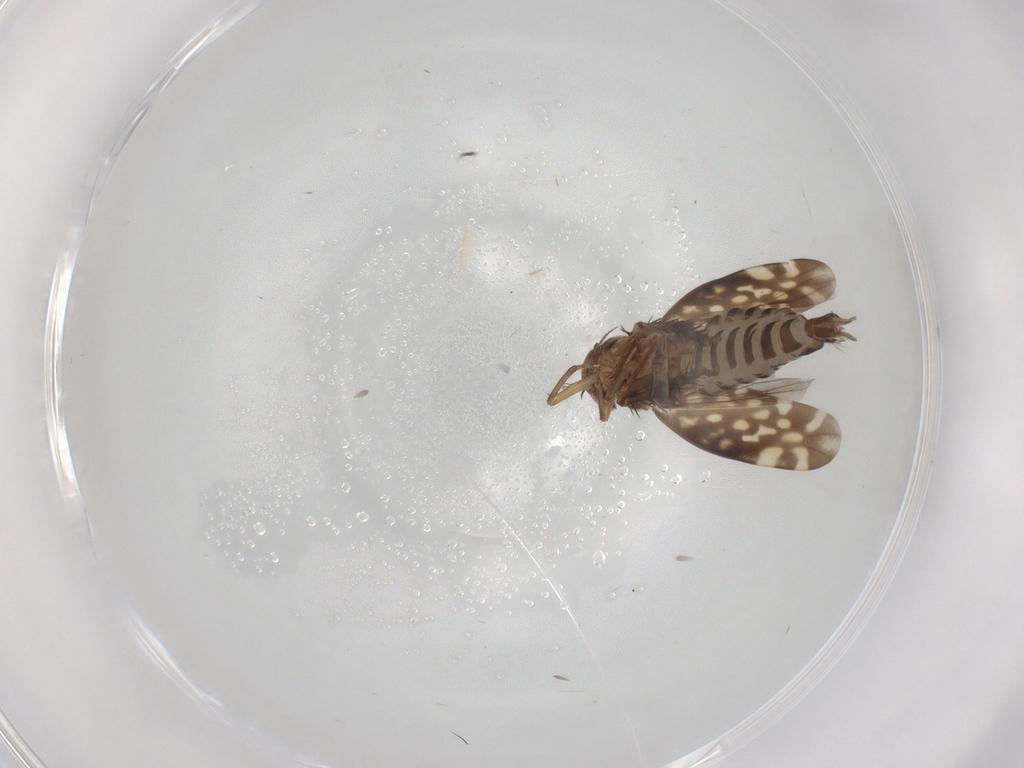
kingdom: Animalia
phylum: Arthropoda
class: Insecta
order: Hemiptera
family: Cicadellidae
